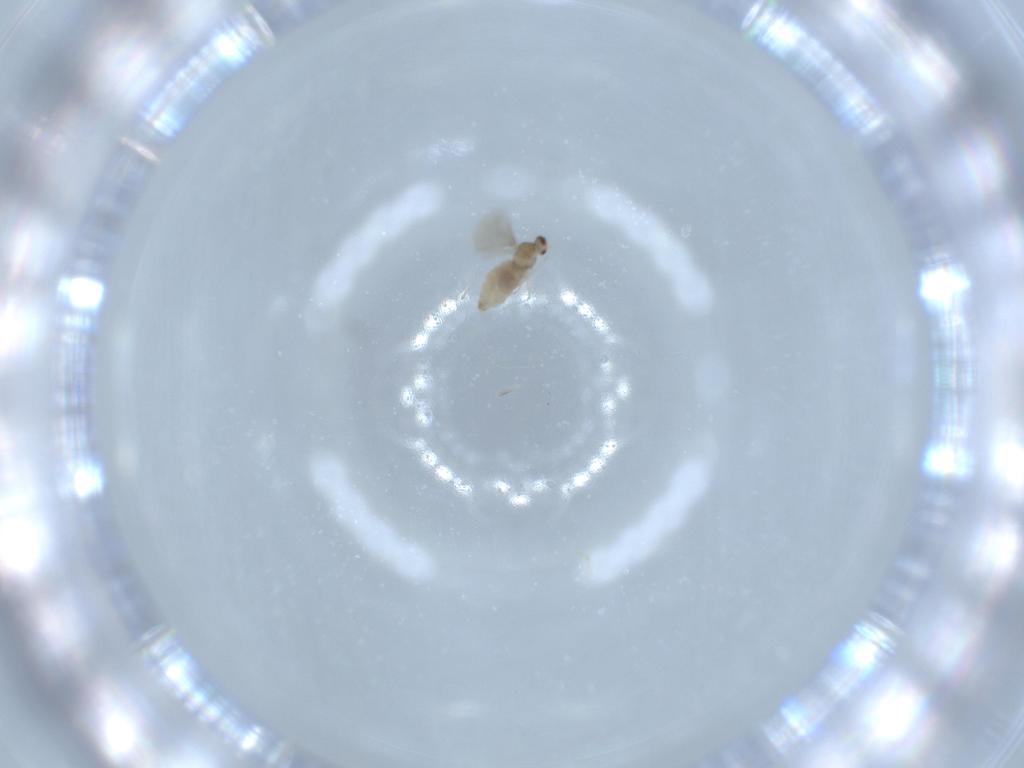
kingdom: Animalia
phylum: Arthropoda
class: Insecta
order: Diptera
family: Cecidomyiidae
